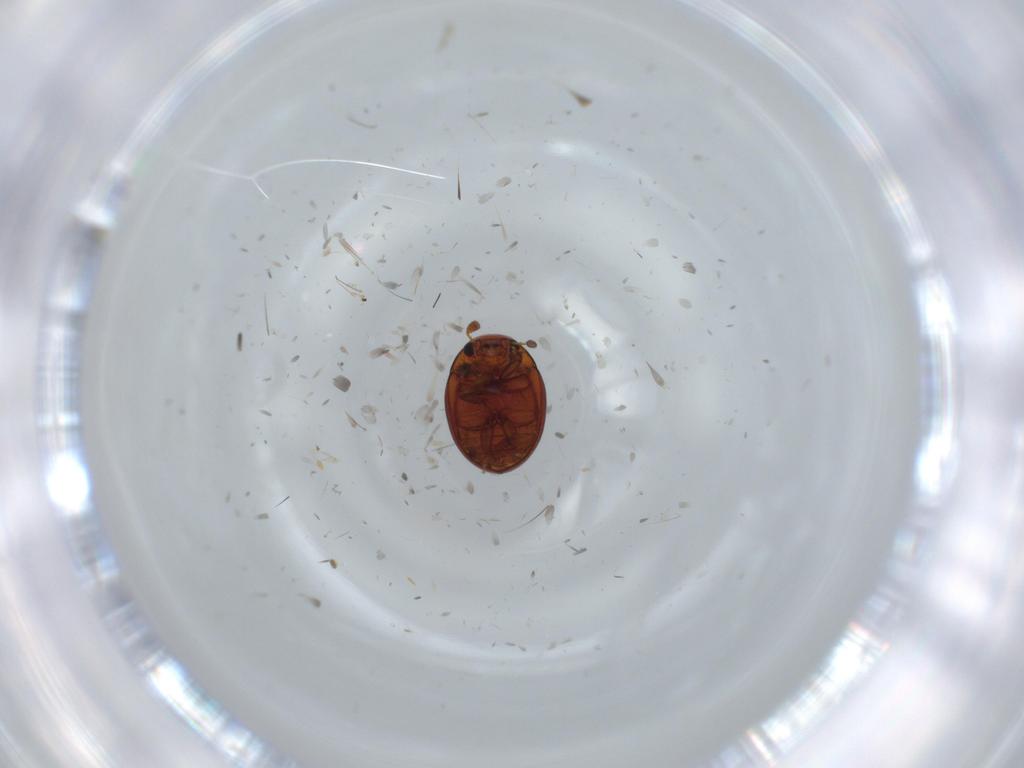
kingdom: Animalia
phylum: Arthropoda
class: Insecta
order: Coleoptera
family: Leiodidae
